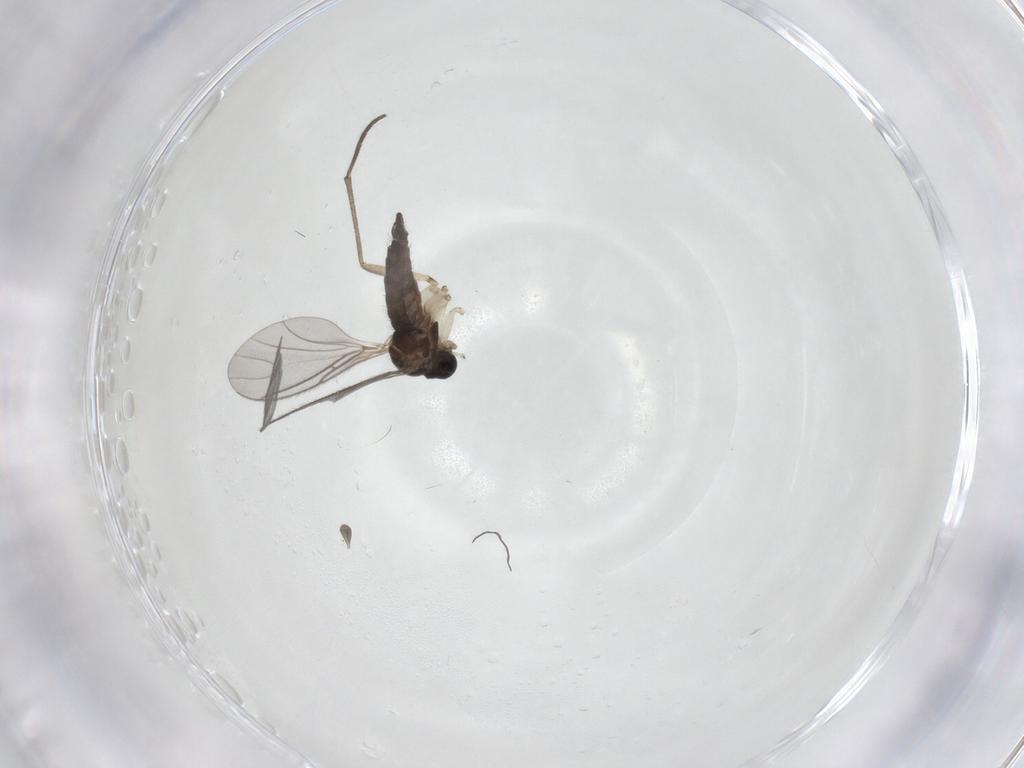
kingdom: Animalia
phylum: Arthropoda
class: Insecta
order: Diptera
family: Sciaridae
